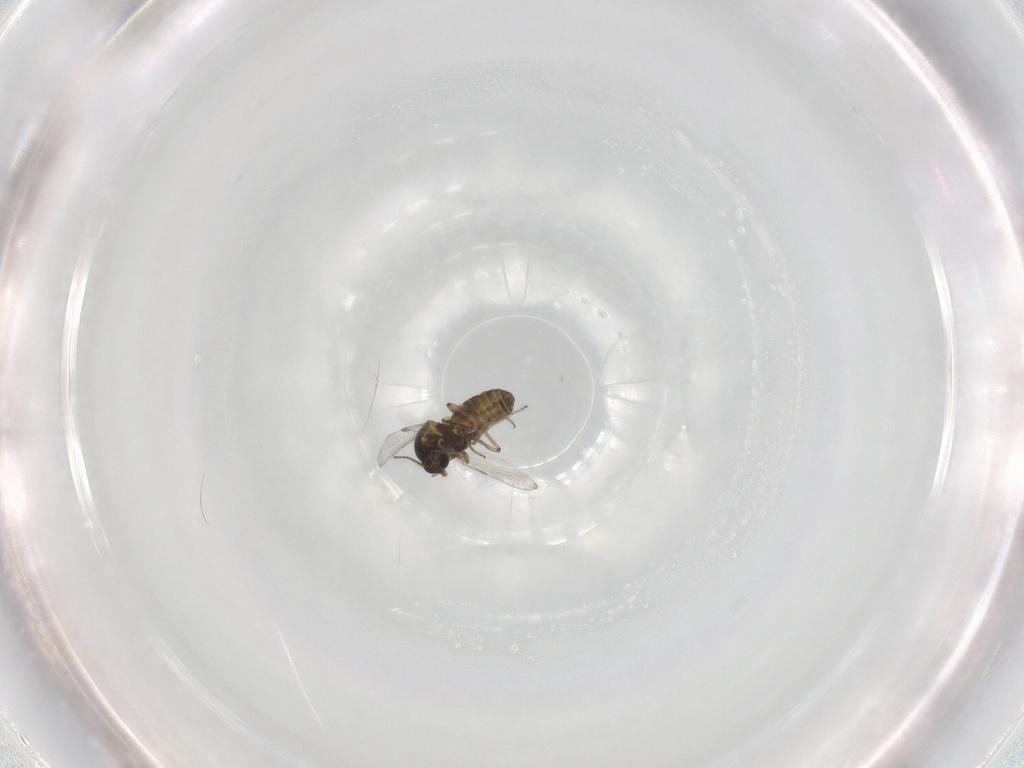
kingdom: Animalia
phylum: Arthropoda
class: Insecta
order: Diptera
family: Ceratopogonidae
